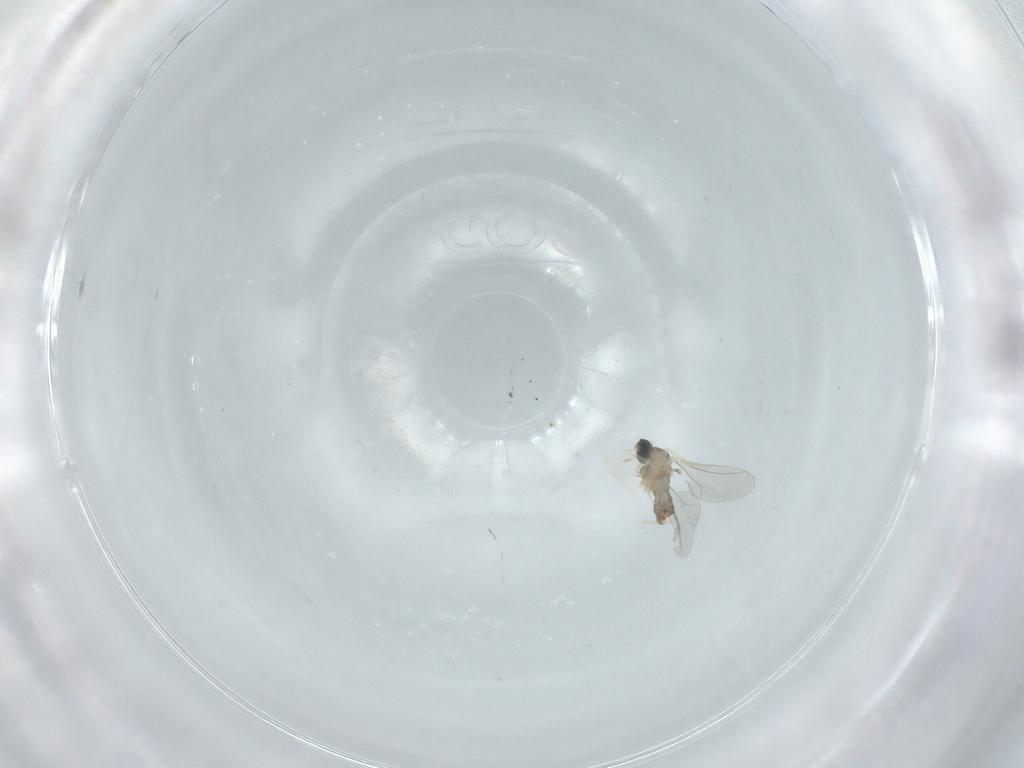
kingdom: Animalia
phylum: Arthropoda
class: Insecta
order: Diptera
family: Cecidomyiidae
